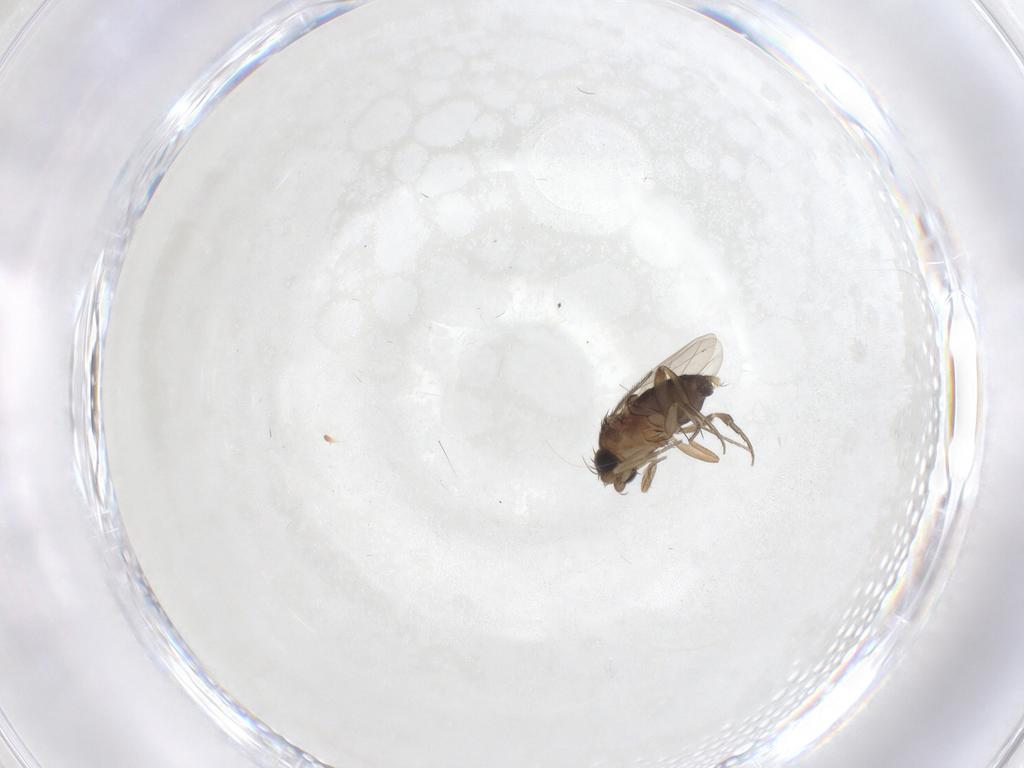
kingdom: Animalia
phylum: Arthropoda
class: Insecta
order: Diptera
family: Phoridae
